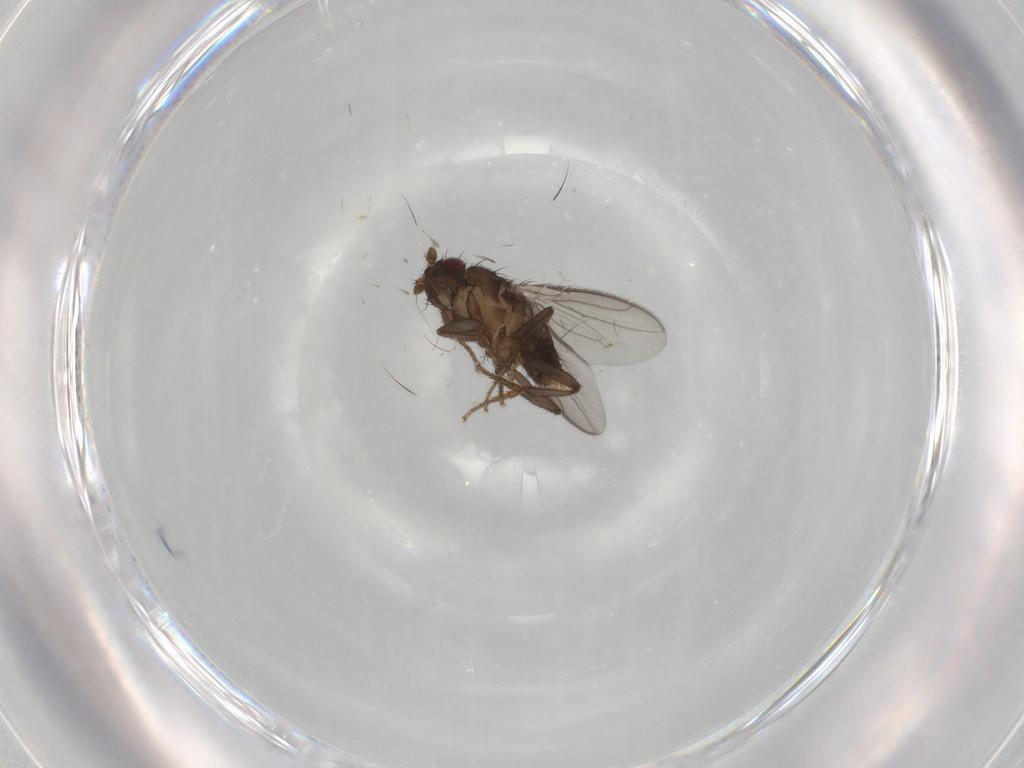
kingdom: Animalia
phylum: Arthropoda
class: Insecta
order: Diptera
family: Sphaeroceridae
